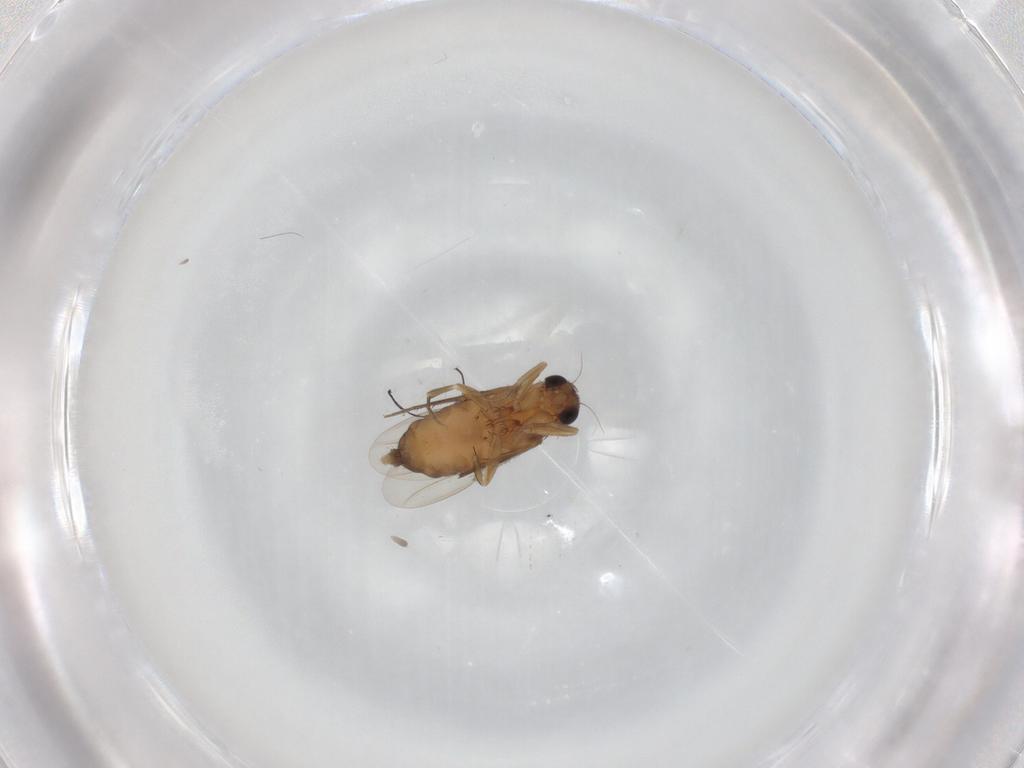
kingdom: Animalia
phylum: Arthropoda
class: Insecta
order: Diptera
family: Phoridae
